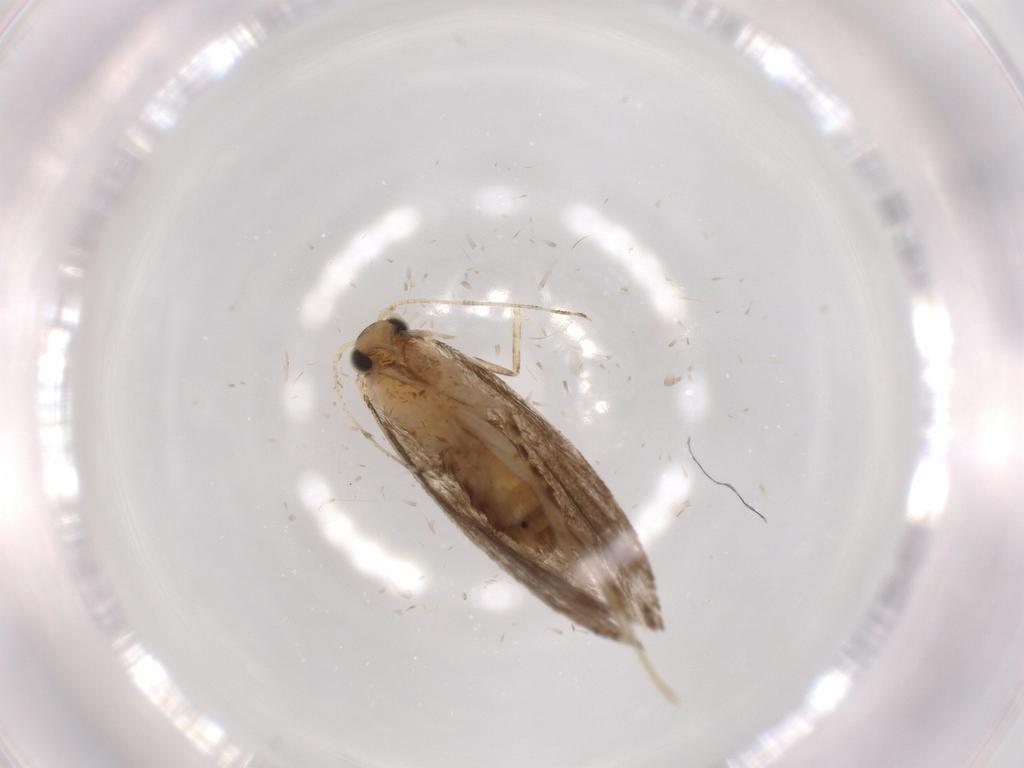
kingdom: Animalia
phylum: Arthropoda
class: Insecta
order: Lepidoptera
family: Tineidae
